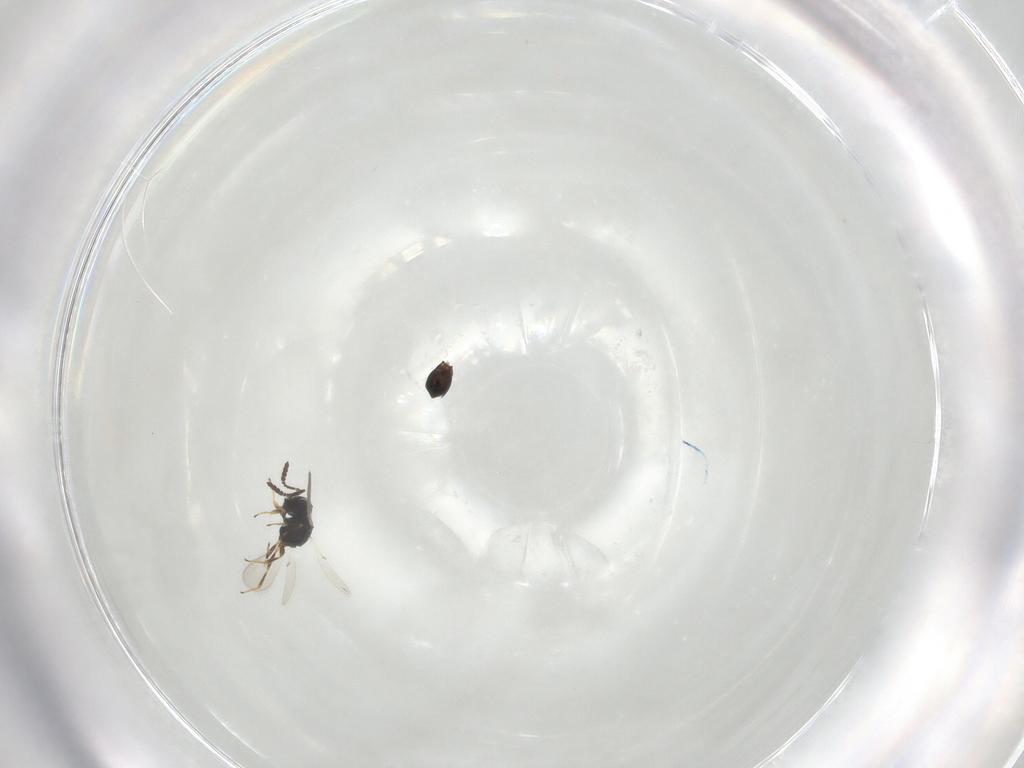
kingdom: Animalia
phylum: Arthropoda
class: Insecta
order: Hymenoptera
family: Scelionidae
